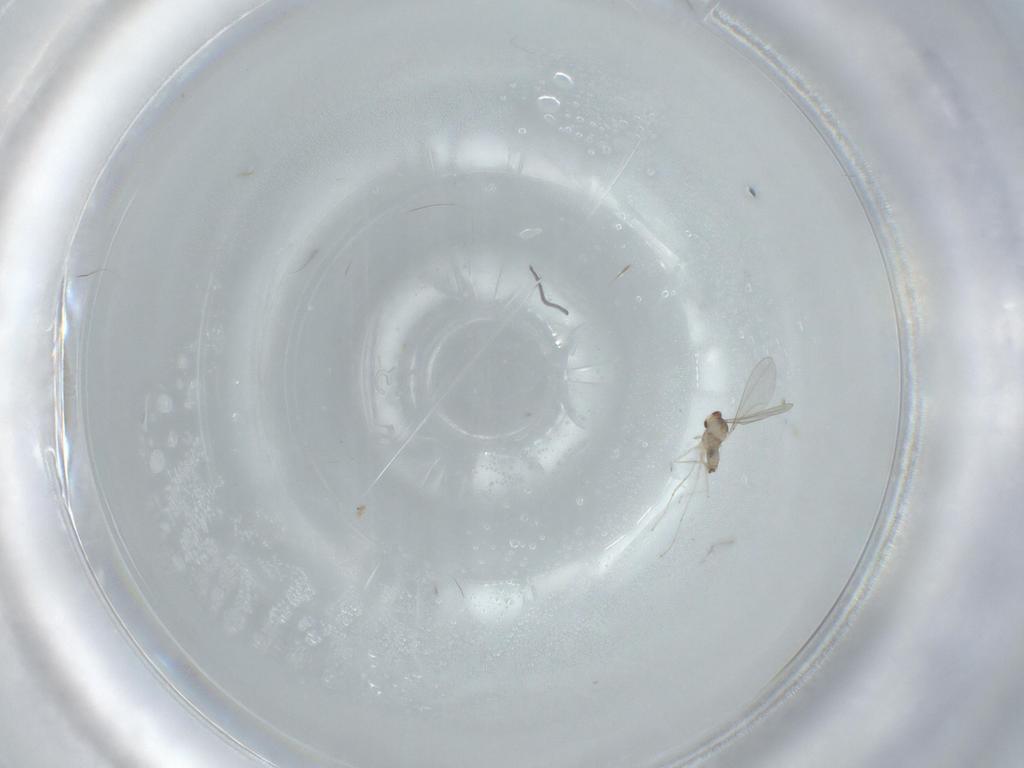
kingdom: Animalia
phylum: Arthropoda
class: Insecta
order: Diptera
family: Cecidomyiidae
